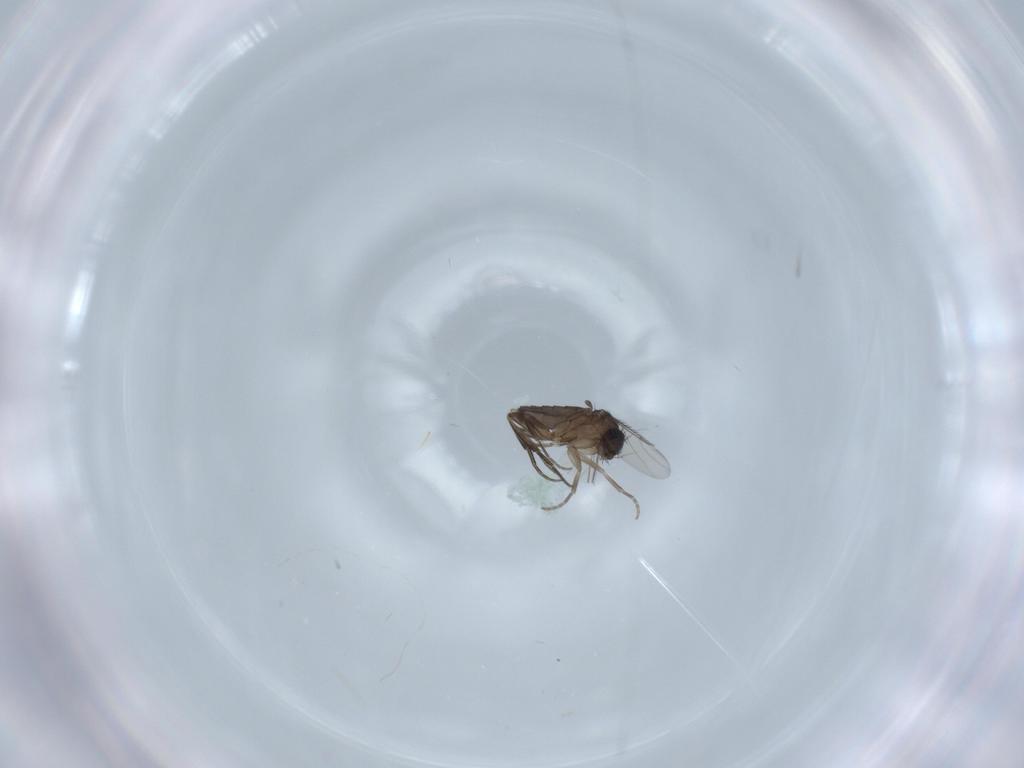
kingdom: Animalia
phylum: Arthropoda
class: Insecta
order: Diptera
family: Phoridae
